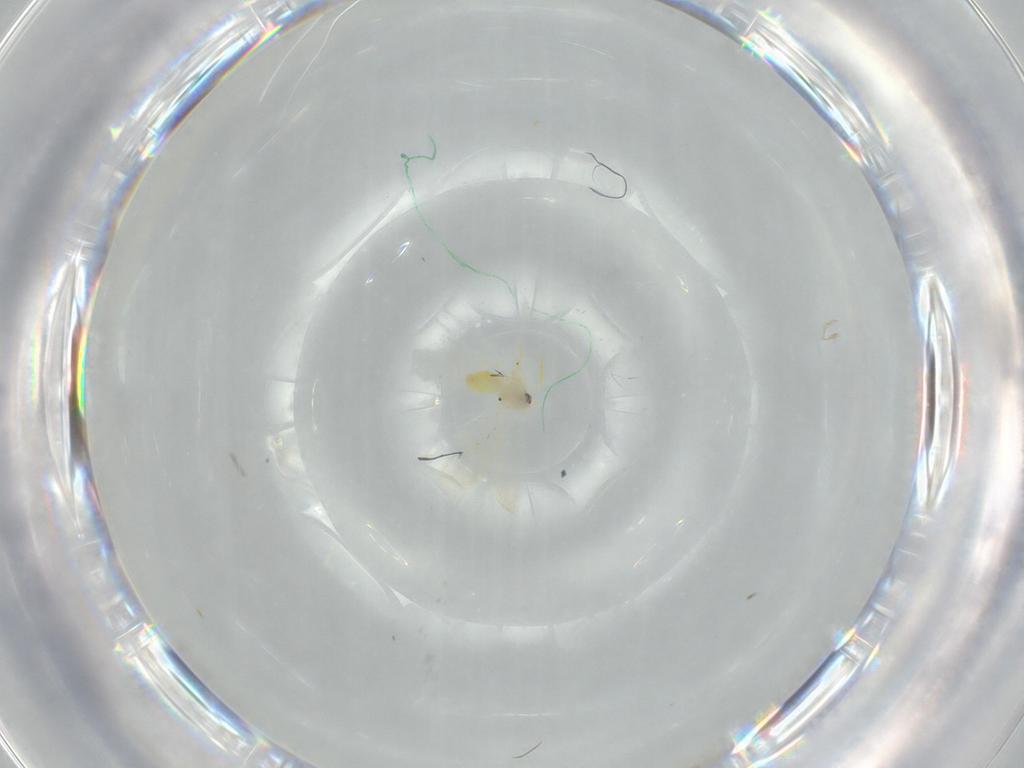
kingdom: Animalia
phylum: Arthropoda
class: Insecta
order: Hemiptera
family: Aleyrodidae
